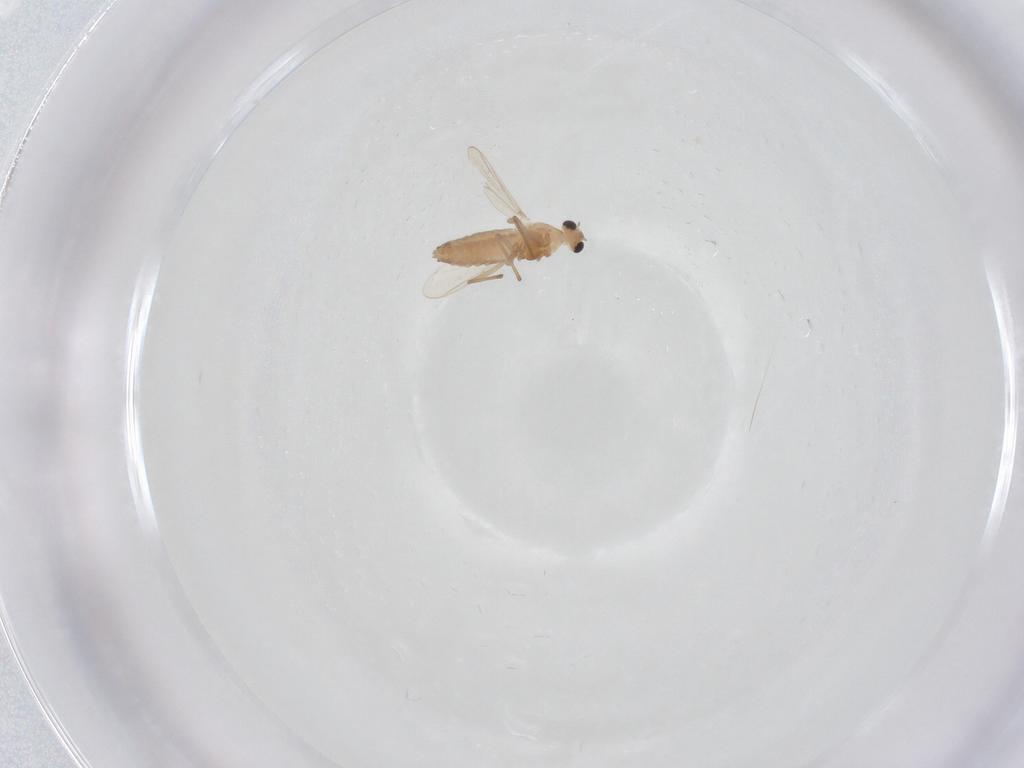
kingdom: Animalia
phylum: Arthropoda
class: Insecta
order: Diptera
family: Chironomidae
